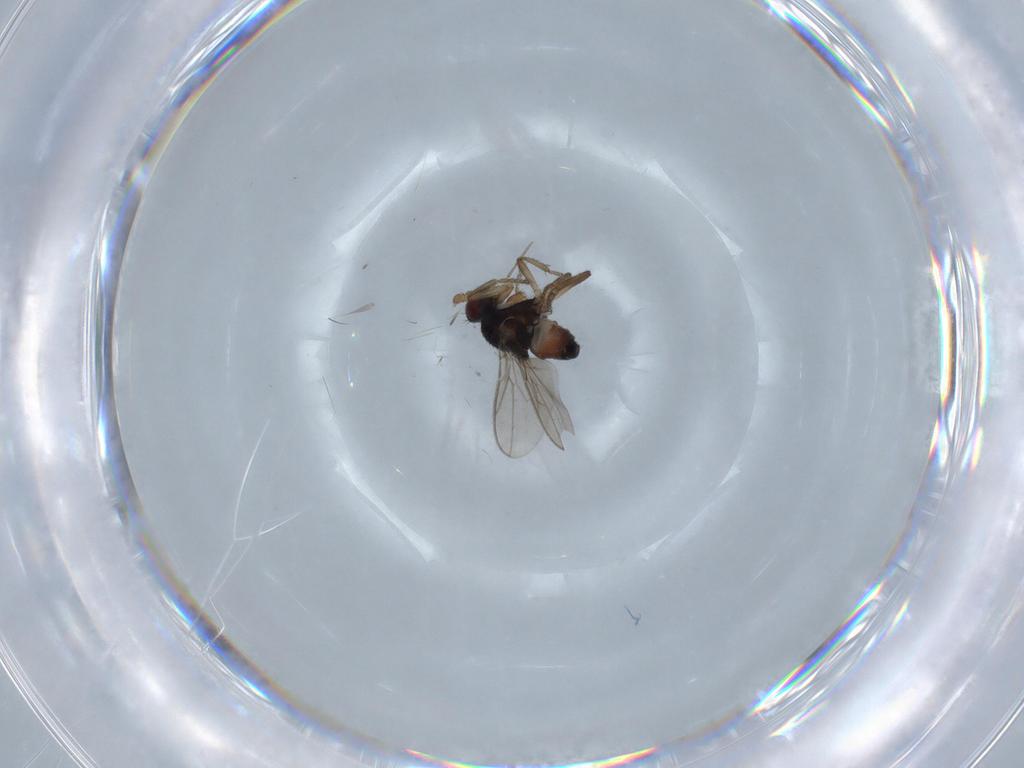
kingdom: Animalia
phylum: Arthropoda
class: Insecta
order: Diptera
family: Sphaeroceridae
